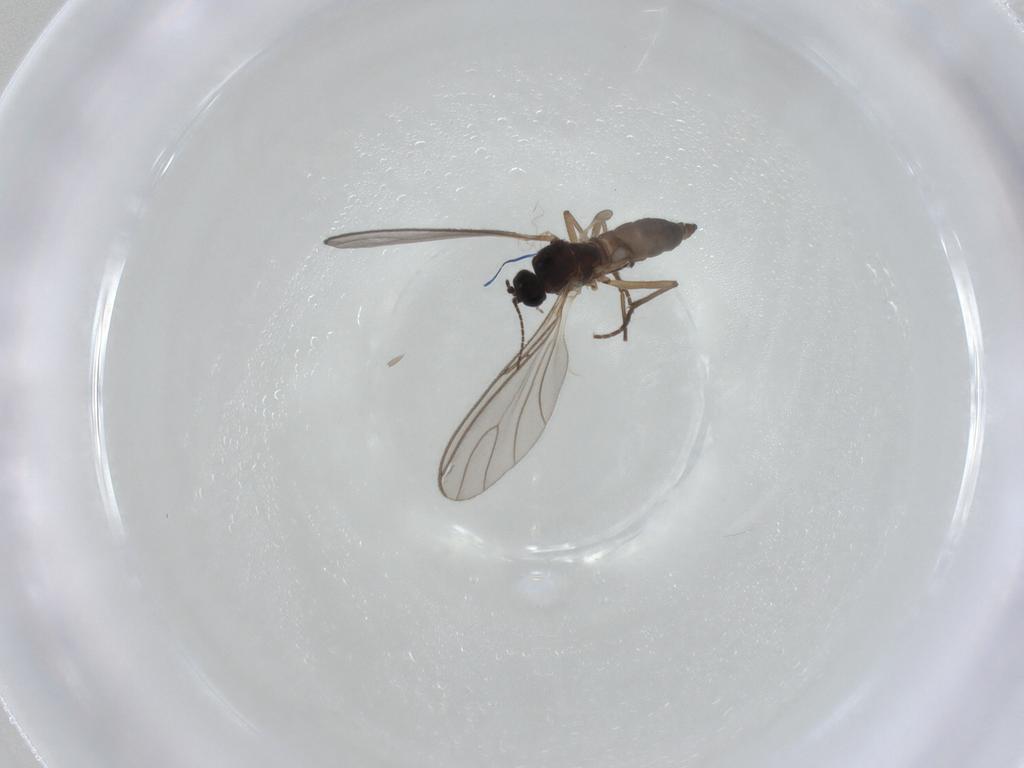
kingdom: Animalia
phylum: Arthropoda
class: Insecta
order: Diptera
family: Sciaridae
